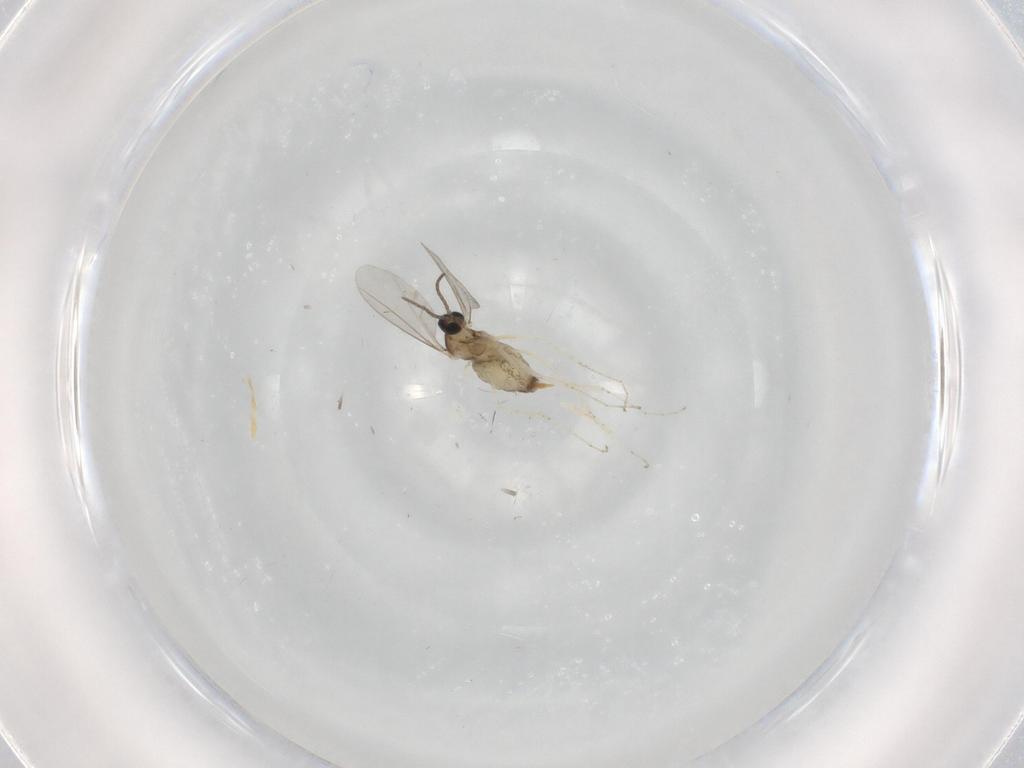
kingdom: Animalia
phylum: Arthropoda
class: Insecta
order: Diptera
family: Cecidomyiidae
